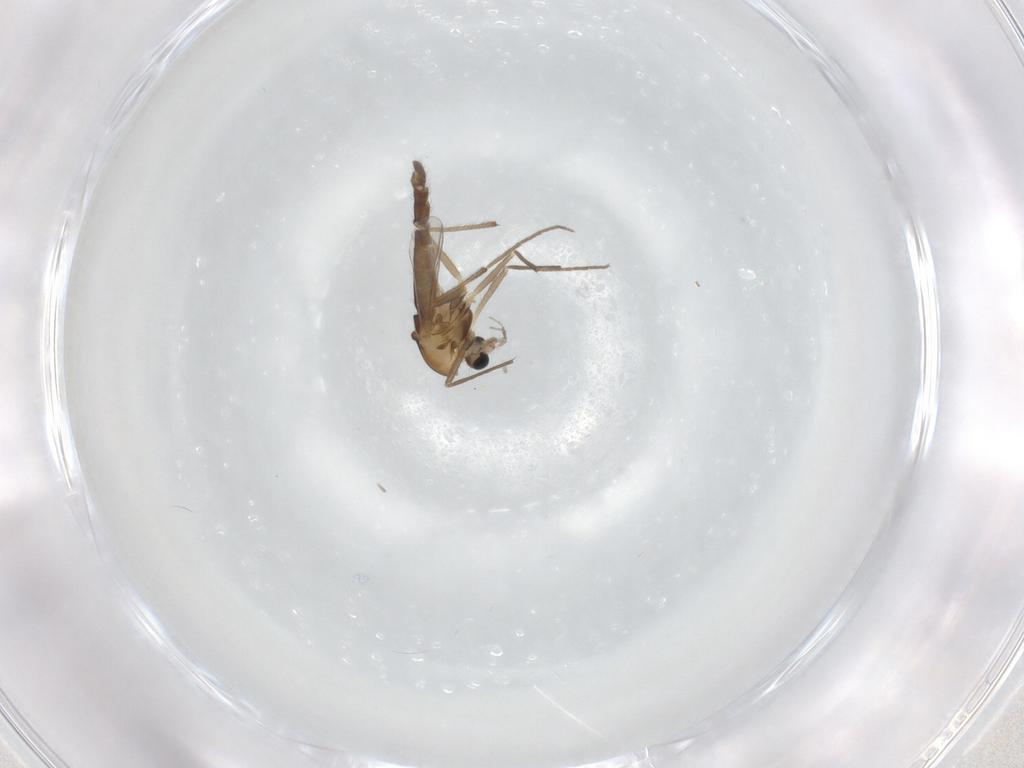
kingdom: Animalia
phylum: Arthropoda
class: Insecta
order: Diptera
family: Chironomidae
